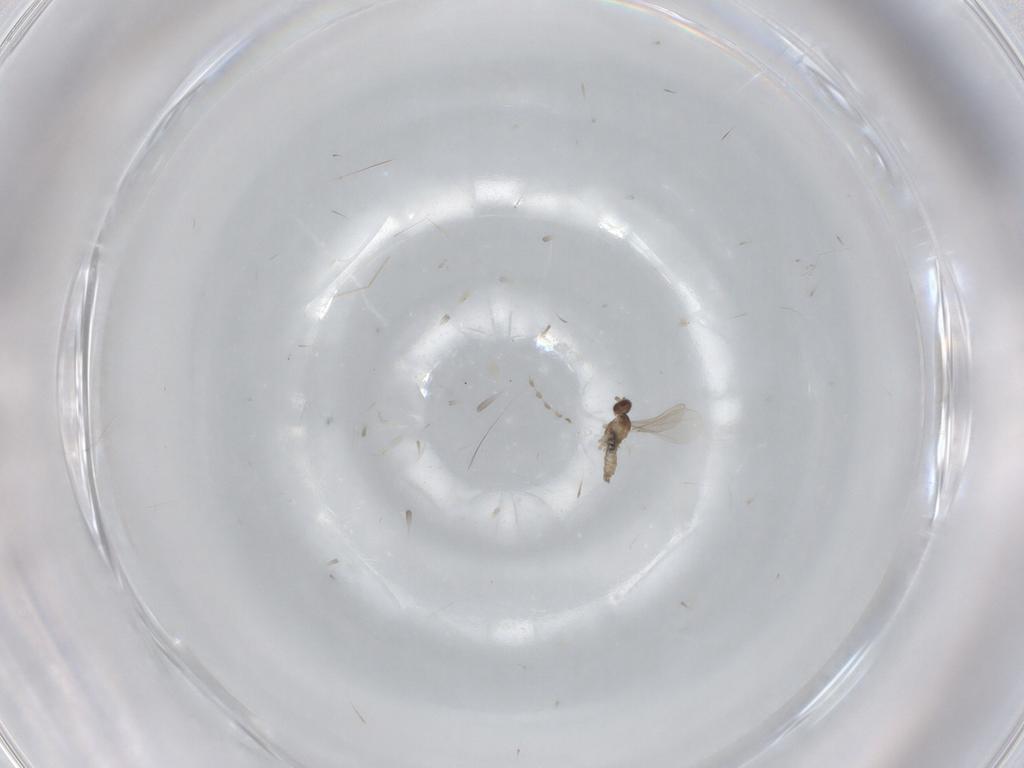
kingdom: Animalia
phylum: Arthropoda
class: Insecta
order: Diptera
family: Cecidomyiidae
